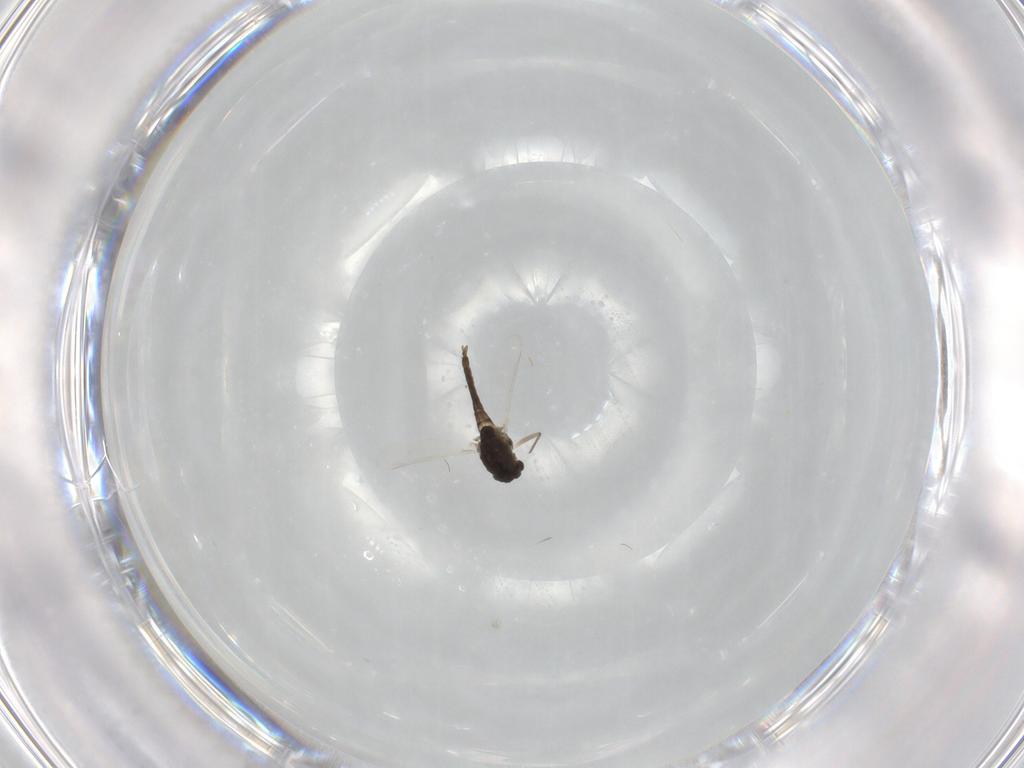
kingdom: Animalia
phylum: Arthropoda
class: Insecta
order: Diptera
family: Chironomidae
